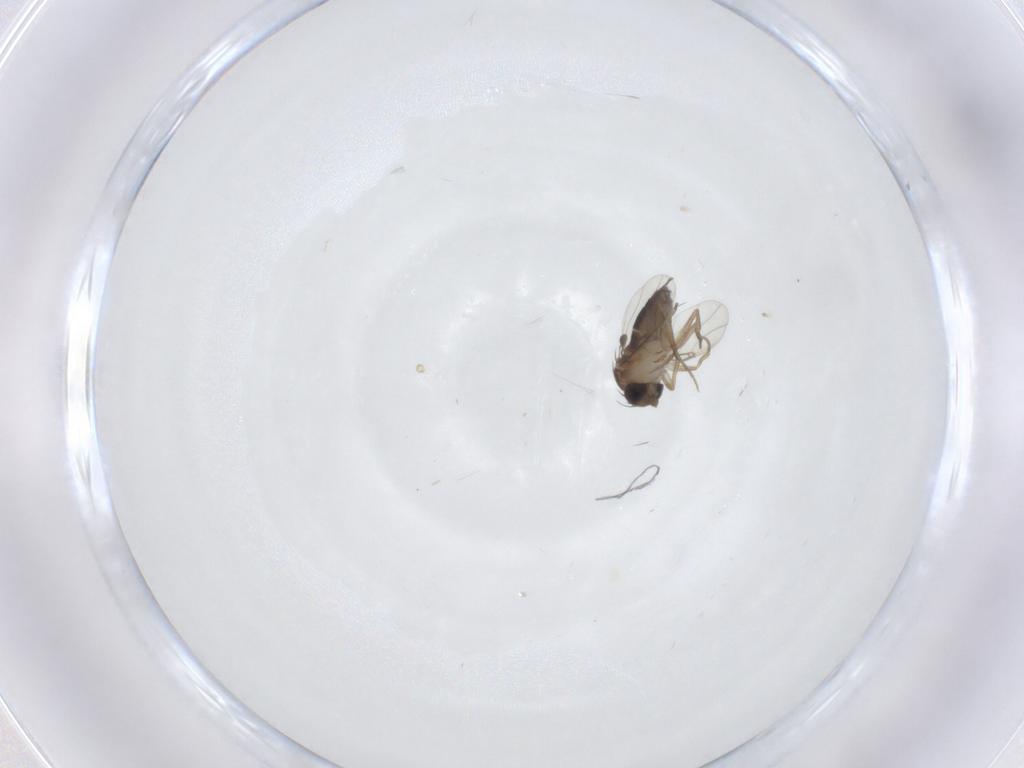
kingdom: Animalia
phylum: Arthropoda
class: Insecta
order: Diptera
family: Phoridae
